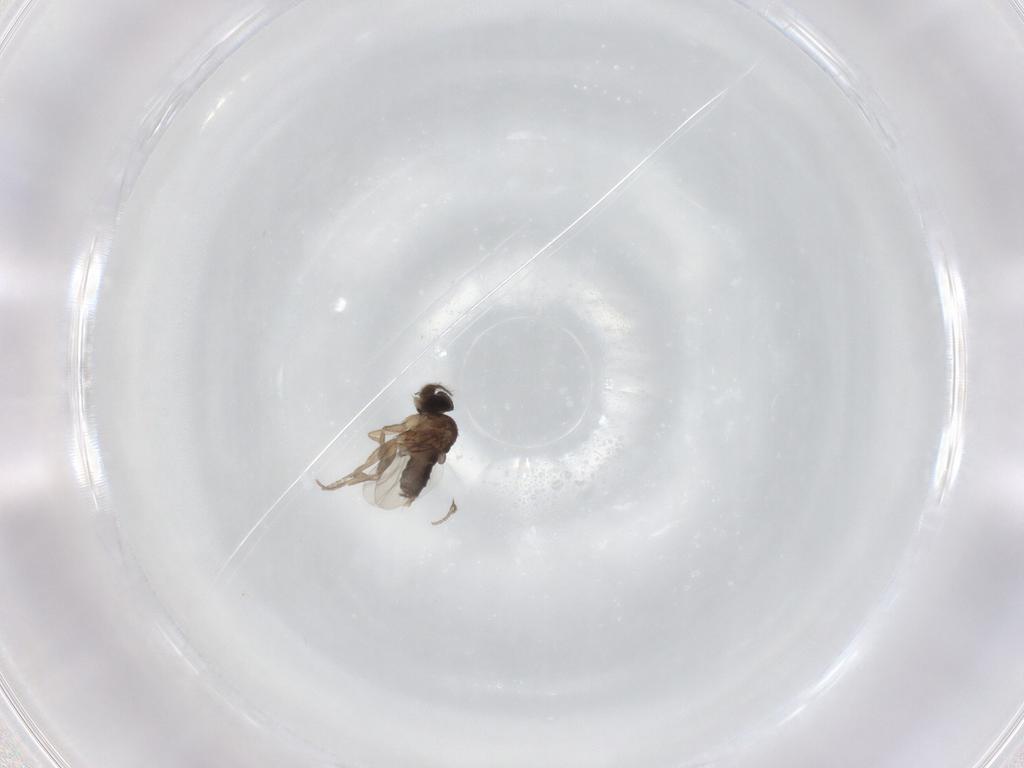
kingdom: Animalia
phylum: Arthropoda
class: Insecta
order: Diptera
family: Phoridae
